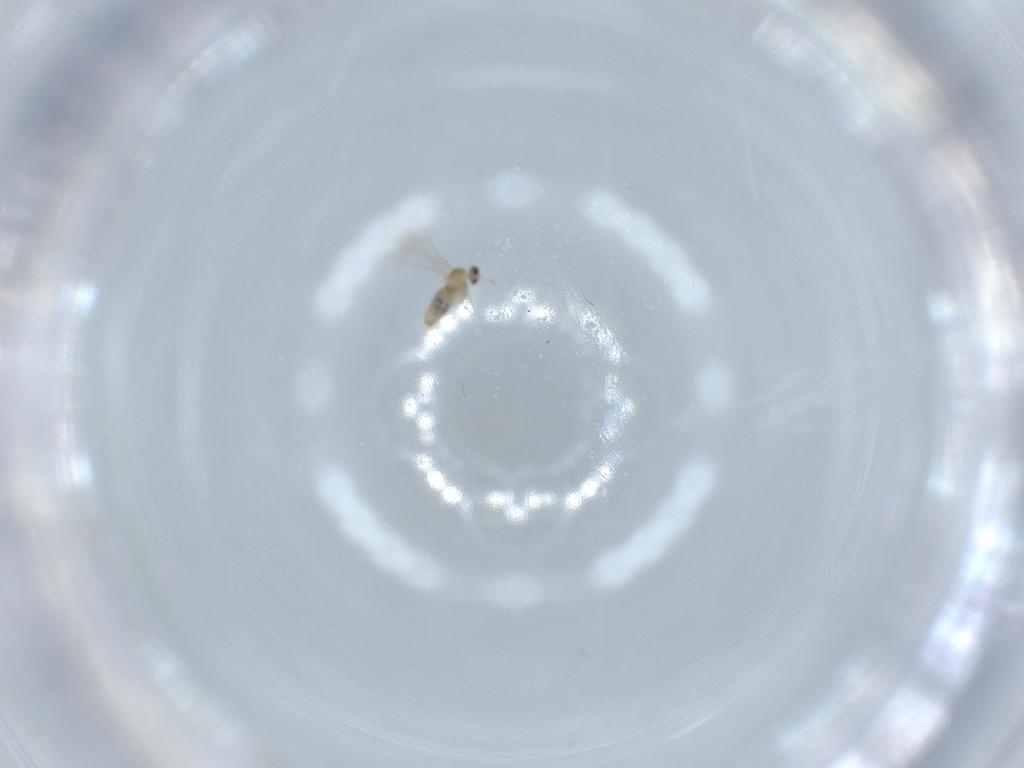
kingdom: Animalia
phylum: Arthropoda
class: Insecta
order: Diptera
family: Cecidomyiidae
